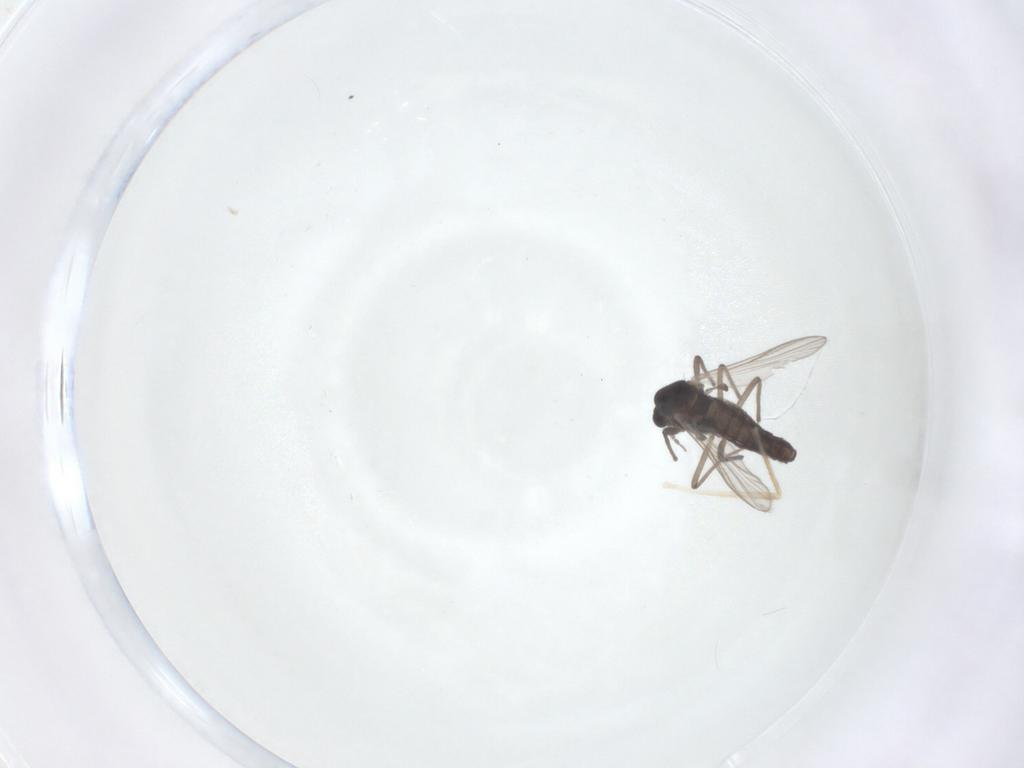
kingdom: Animalia
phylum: Arthropoda
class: Insecta
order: Diptera
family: Chironomidae
